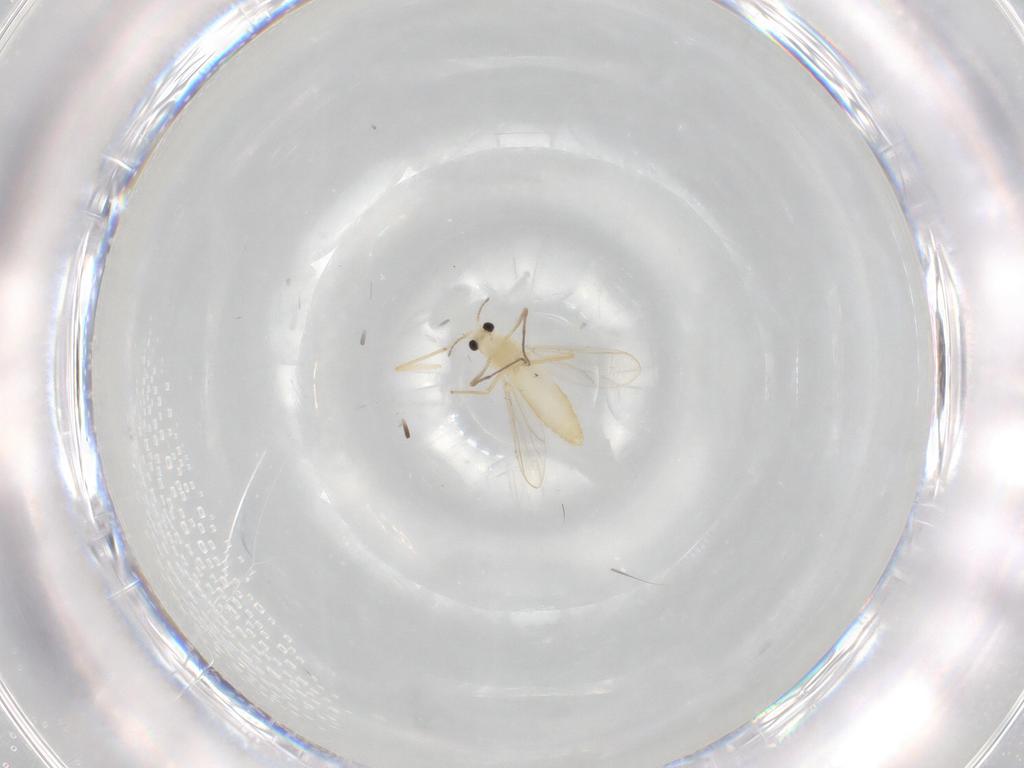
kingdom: Animalia
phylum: Arthropoda
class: Insecta
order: Diptera
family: Chironomidae
